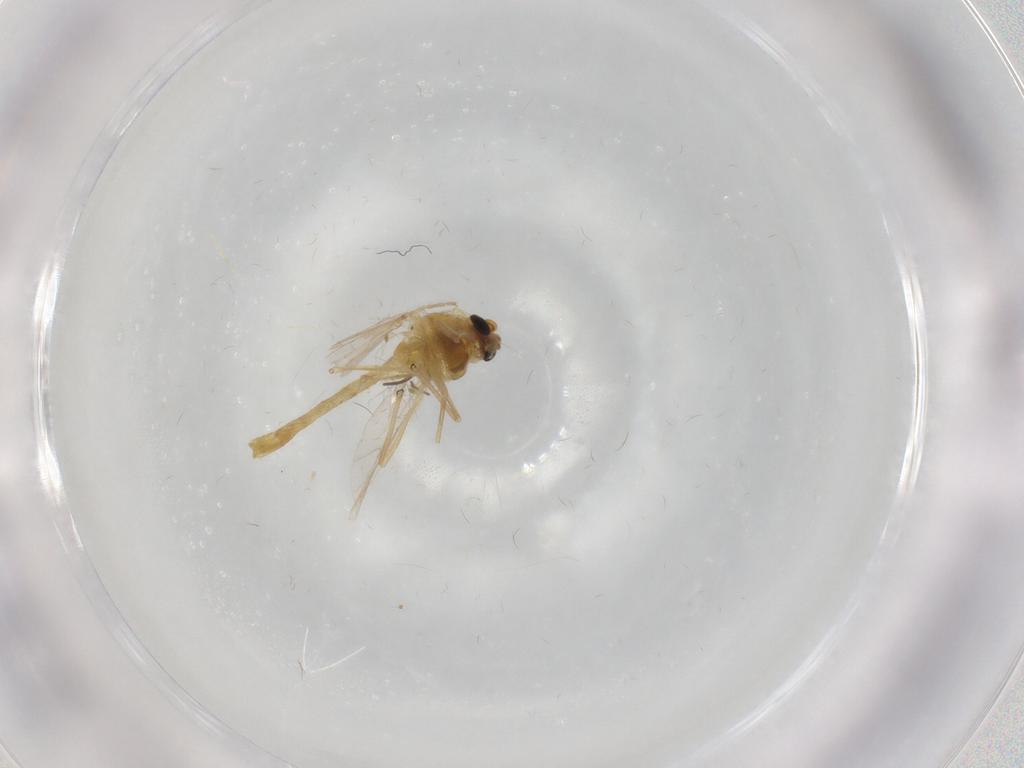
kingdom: Animalia
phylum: Arthropoda
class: Insecta
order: Diptera
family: Chironomidae
